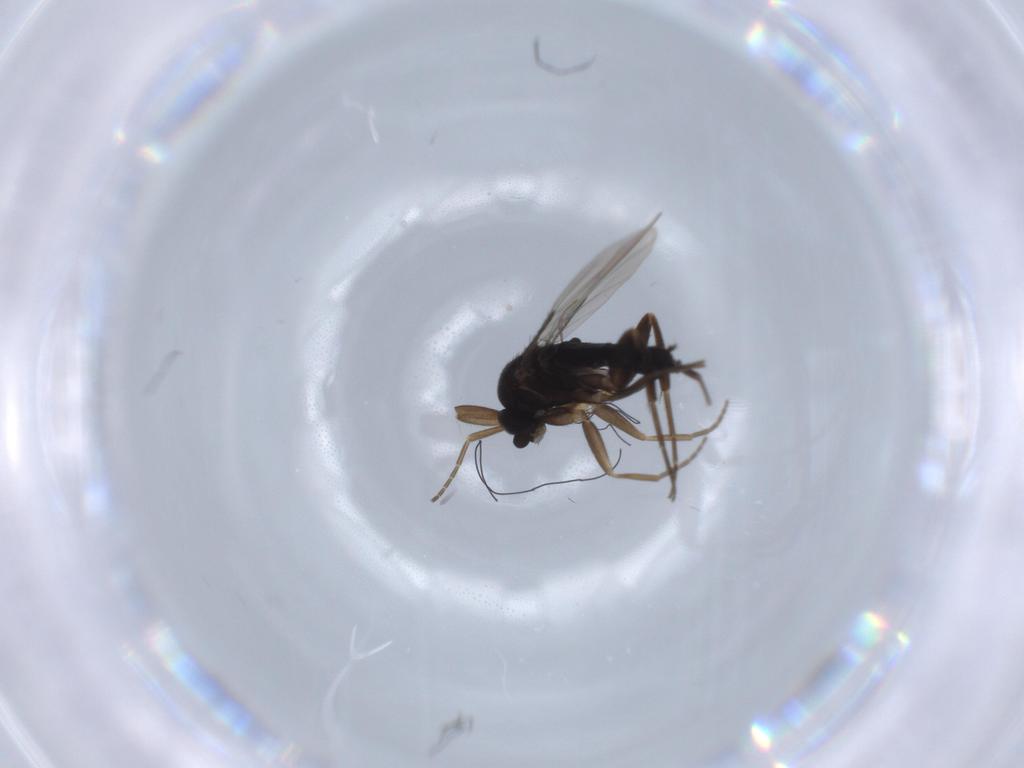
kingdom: Animalia
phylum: Arthropoda
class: Insecta
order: Diptera
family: Phoridae
